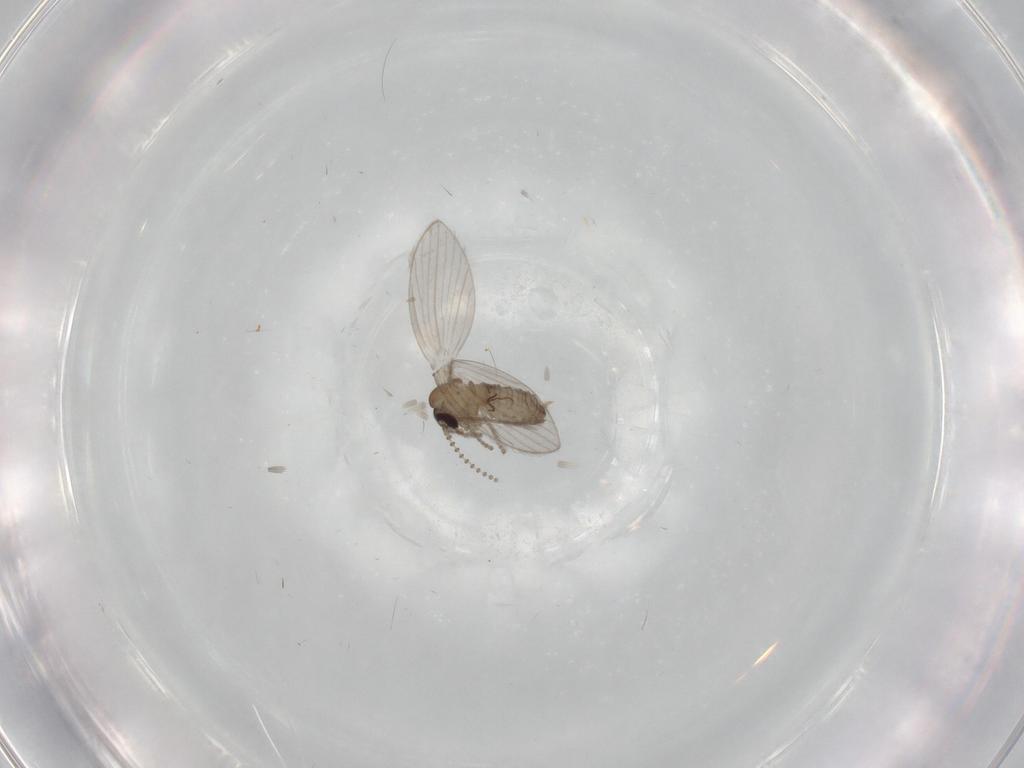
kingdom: Animalia
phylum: Arthropoda
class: Insecta
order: Diptera
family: Psychodidae
